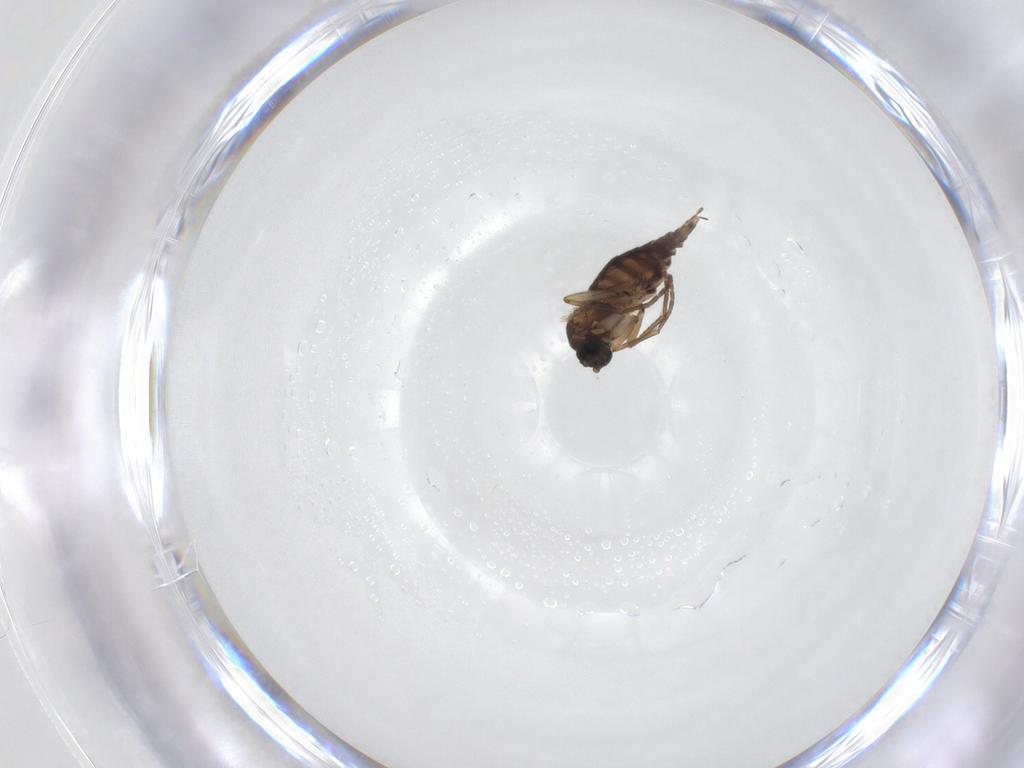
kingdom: Animalia
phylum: Arthropoda
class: Insecta
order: Diptera
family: Sciaridae
